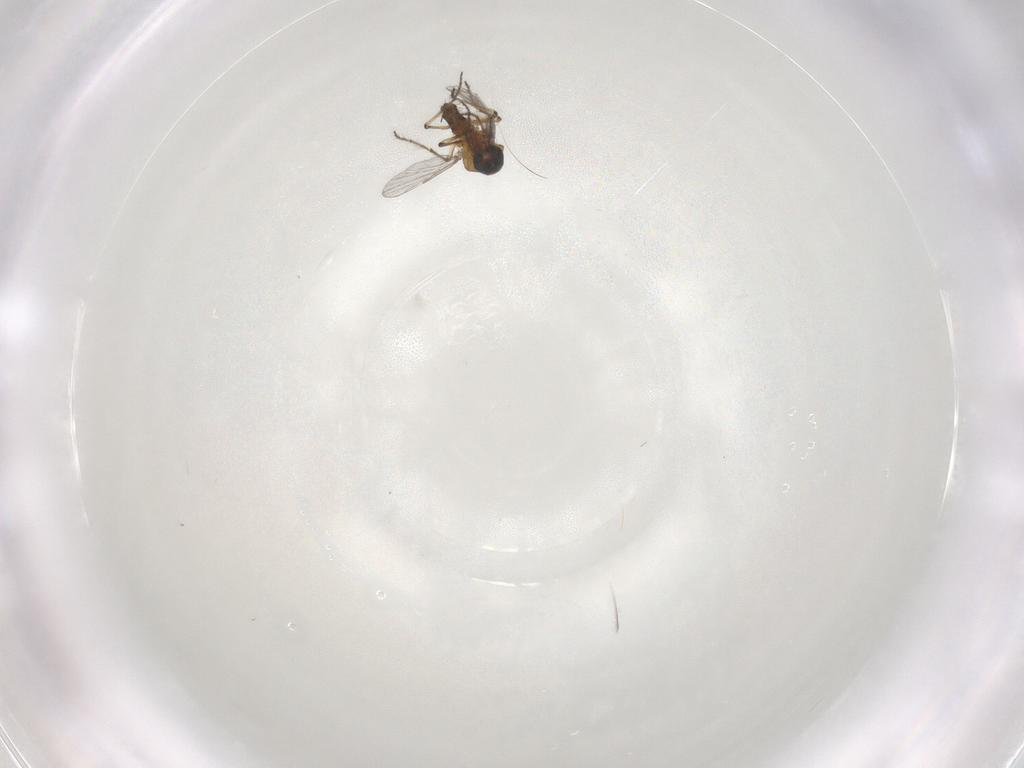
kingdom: Animalia
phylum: Arthropoda
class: Insecta
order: Diptera
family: Ceratopogonidae
